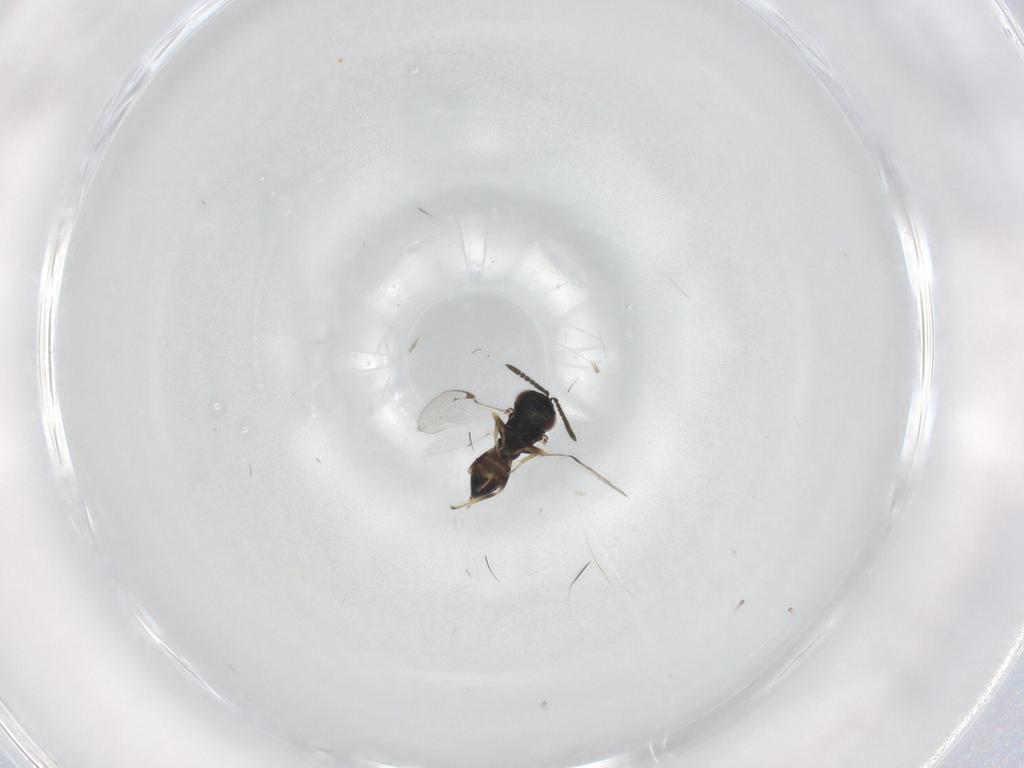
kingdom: Animalia
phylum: Arthropoda
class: Insecta
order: Hymenoptera
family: Pteromalidae
